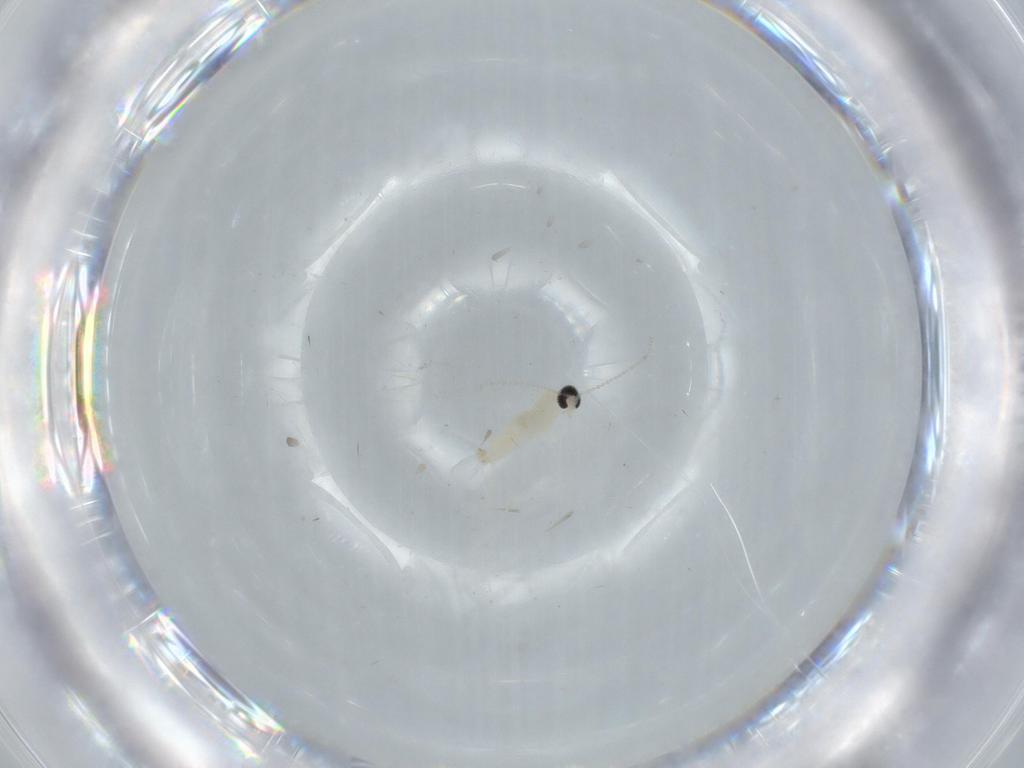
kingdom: Animalia
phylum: Arthropoda
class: Insecta
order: Diptera
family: Cecidomyiidae
